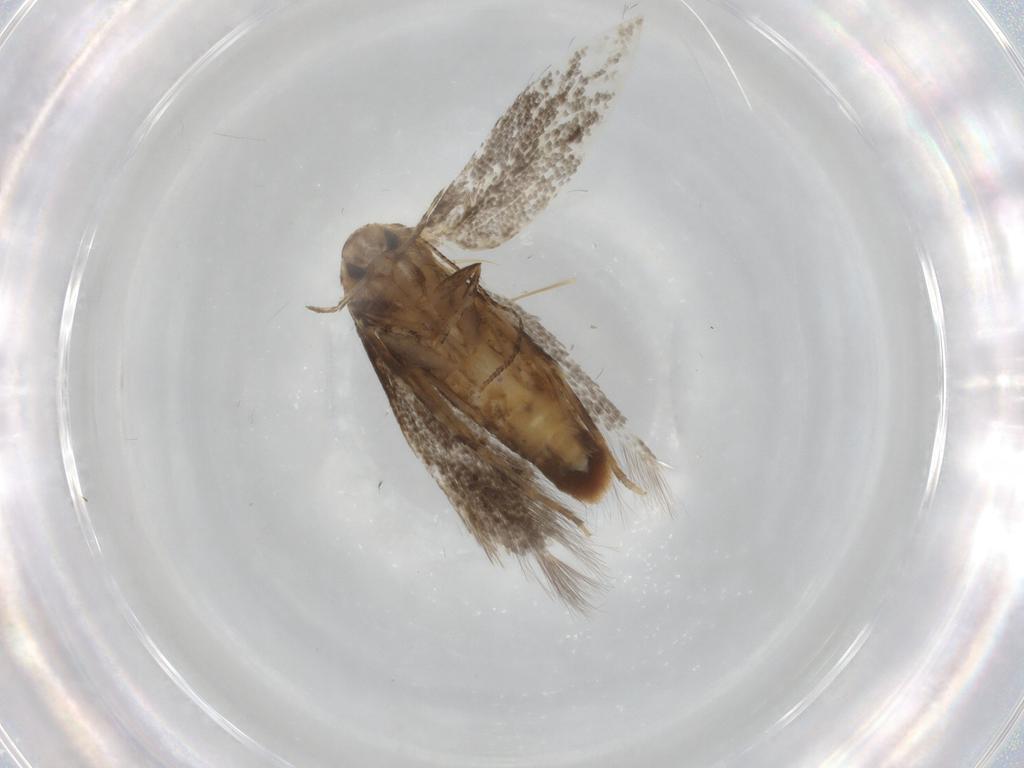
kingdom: Animalia
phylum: Arthropoda
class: Insecta
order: Lepidoptera
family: Elachistidae
